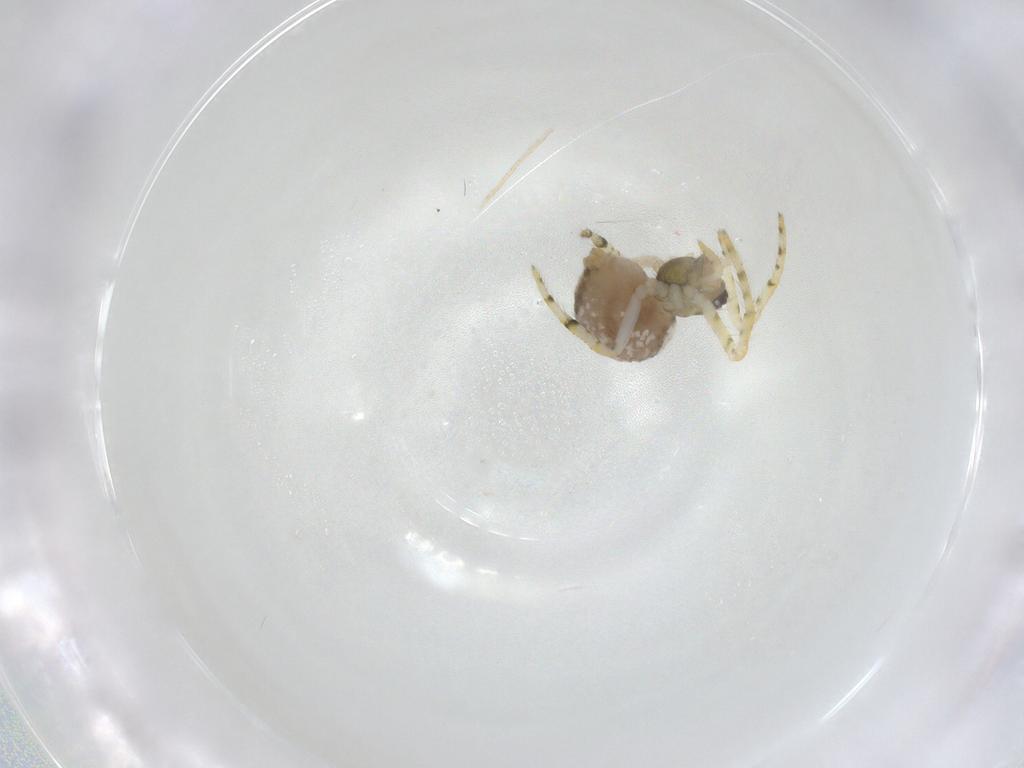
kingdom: Animalia
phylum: Arthropoda
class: Arachnida
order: Araneae
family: Theridiidae
